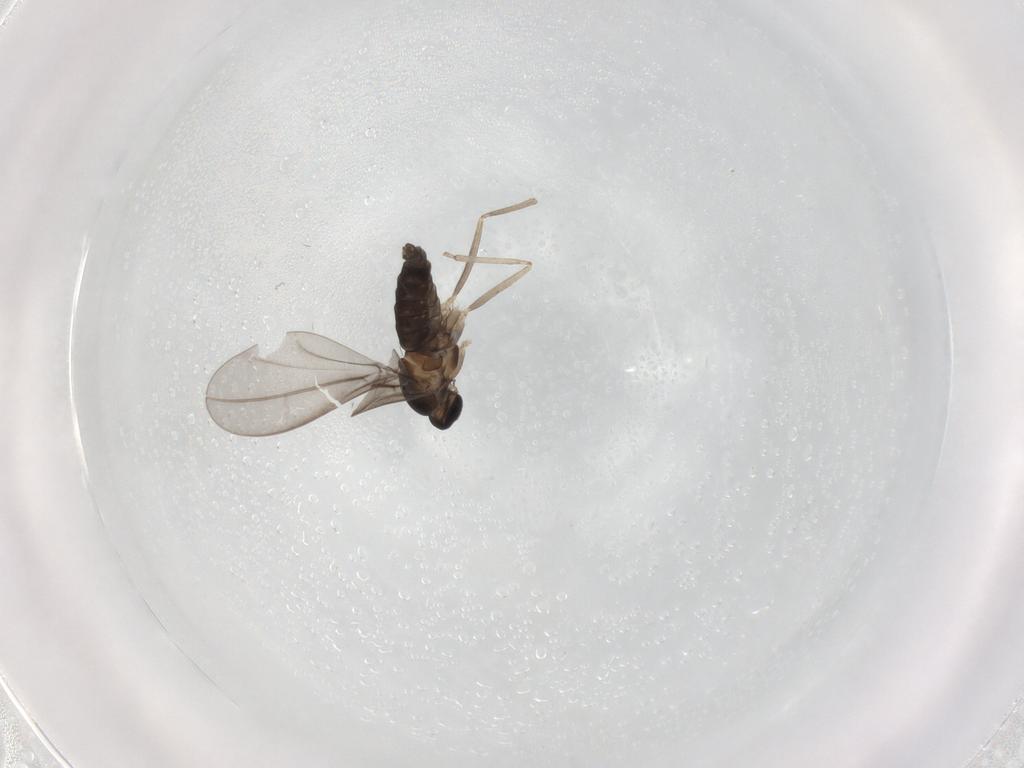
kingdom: Animalia
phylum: Arthropoda
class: Insecta
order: Diptera
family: Cecidomyiidae
